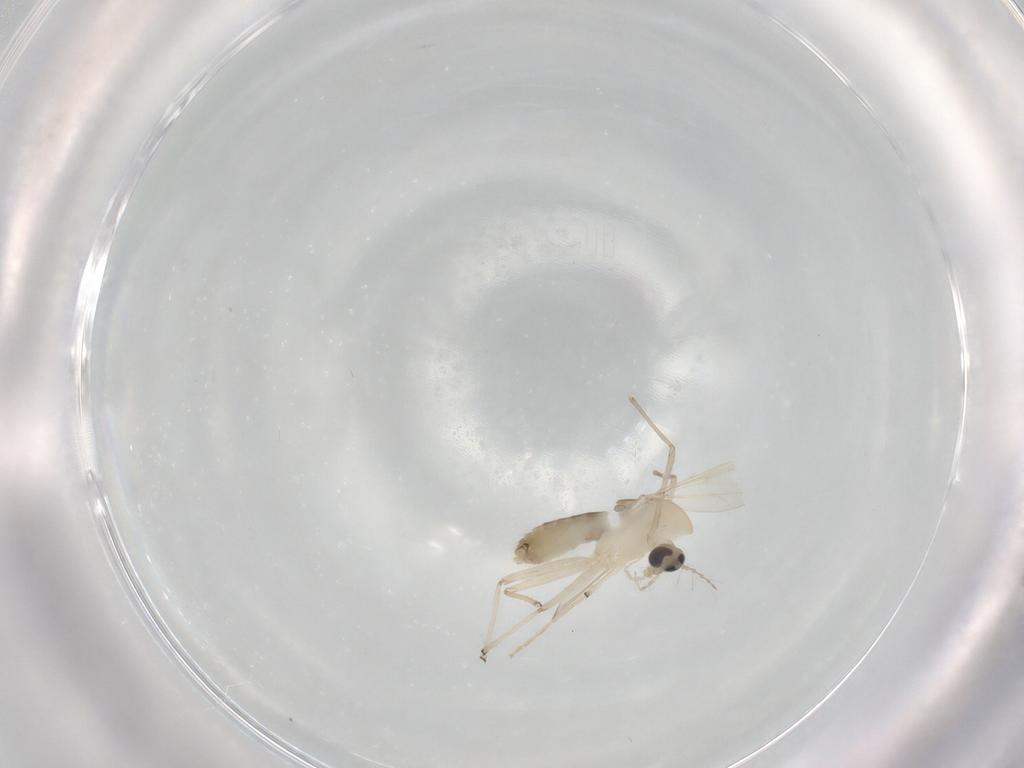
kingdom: Animalia
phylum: Arthropoda
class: Insecta
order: Diptera
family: Chironomidae
